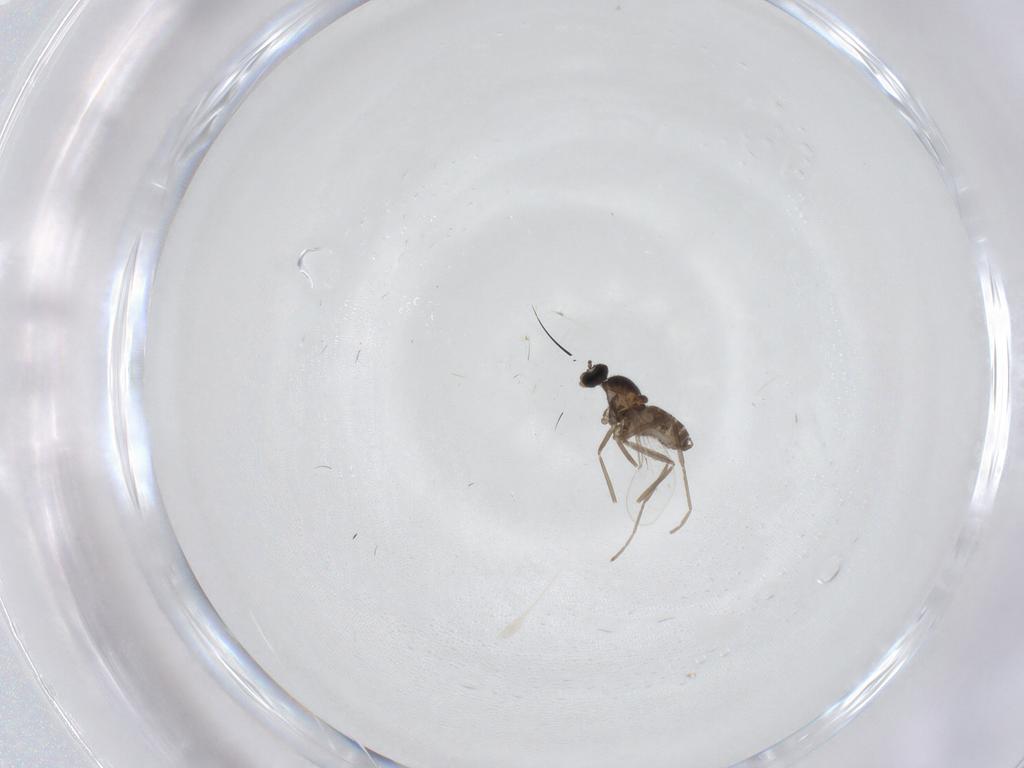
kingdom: Animalia
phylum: Arthropoda
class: Insecta
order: Diptera
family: Cecidomyiidae
